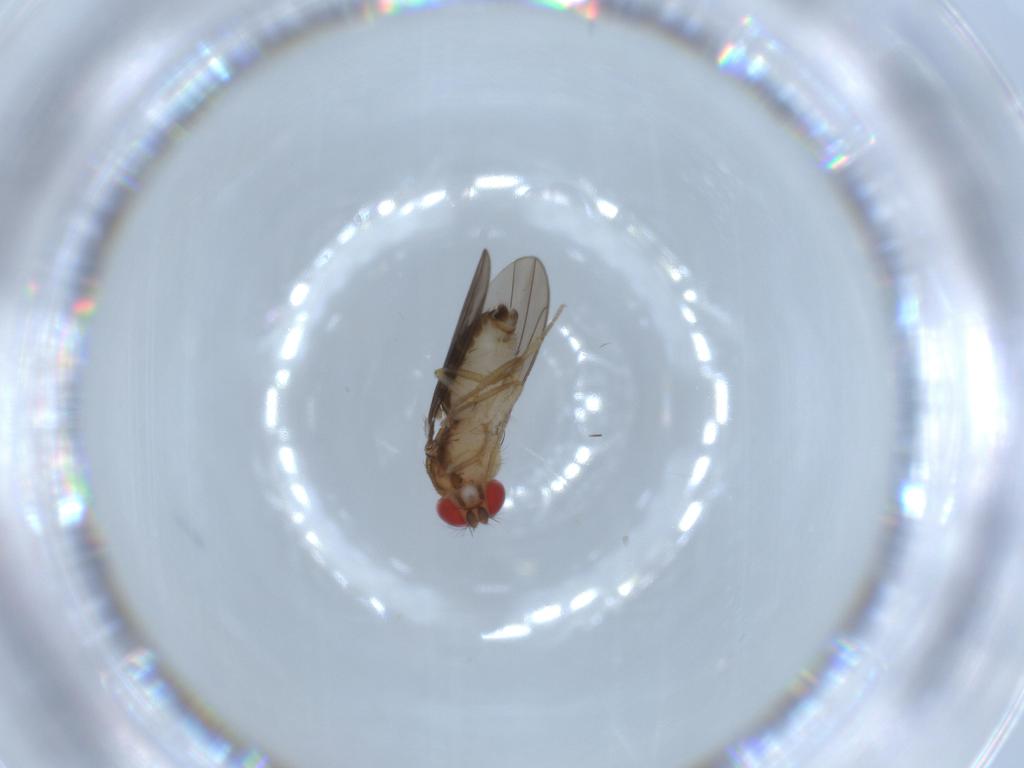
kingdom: Animalia
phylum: Arthropoda
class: Insecta
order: Diptera
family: Drosophilidae
